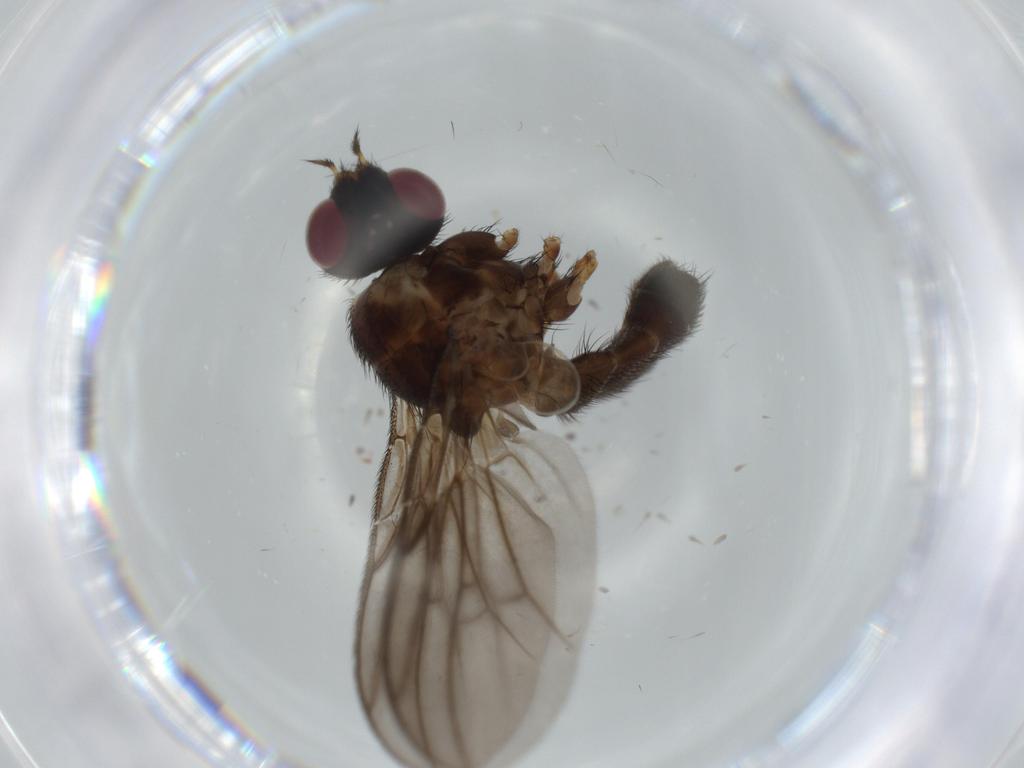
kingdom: Animalia
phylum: Arthropoda
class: Insecta
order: Diptera
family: Calliphoridae
